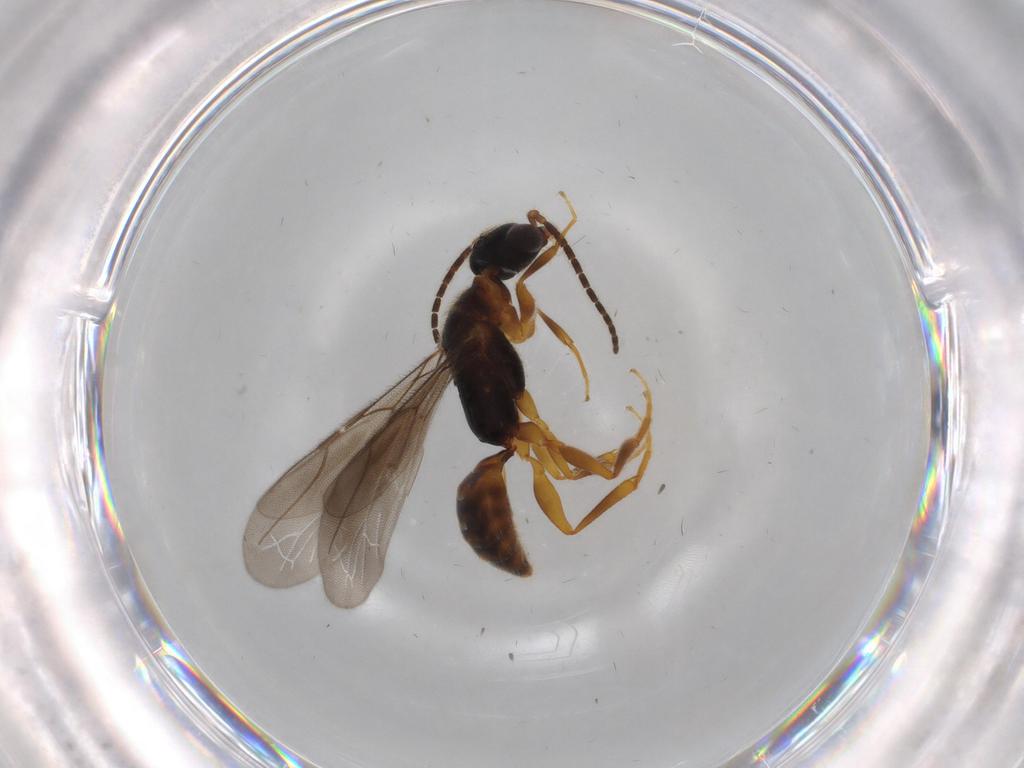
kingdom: Animalia
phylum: Arthropoda
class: Insecta
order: Hymenoptera
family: Bethylidae
